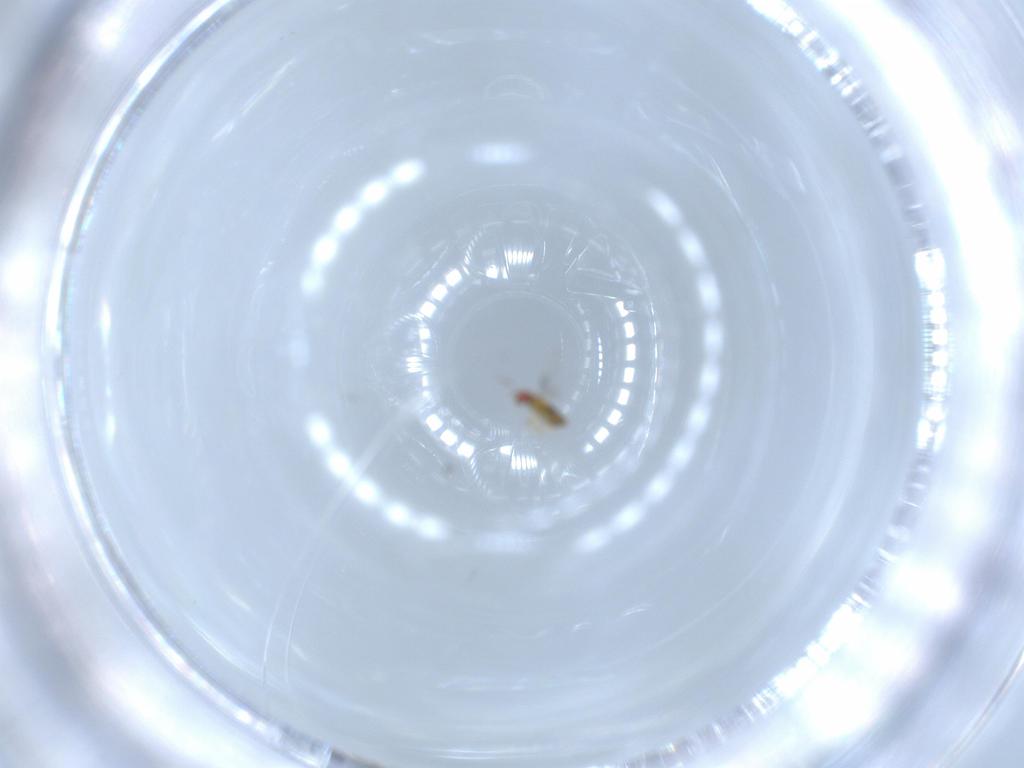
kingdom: Animalia
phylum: Arthropoda
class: Insecta
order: Hymenoptera
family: Trichogrammatidae
